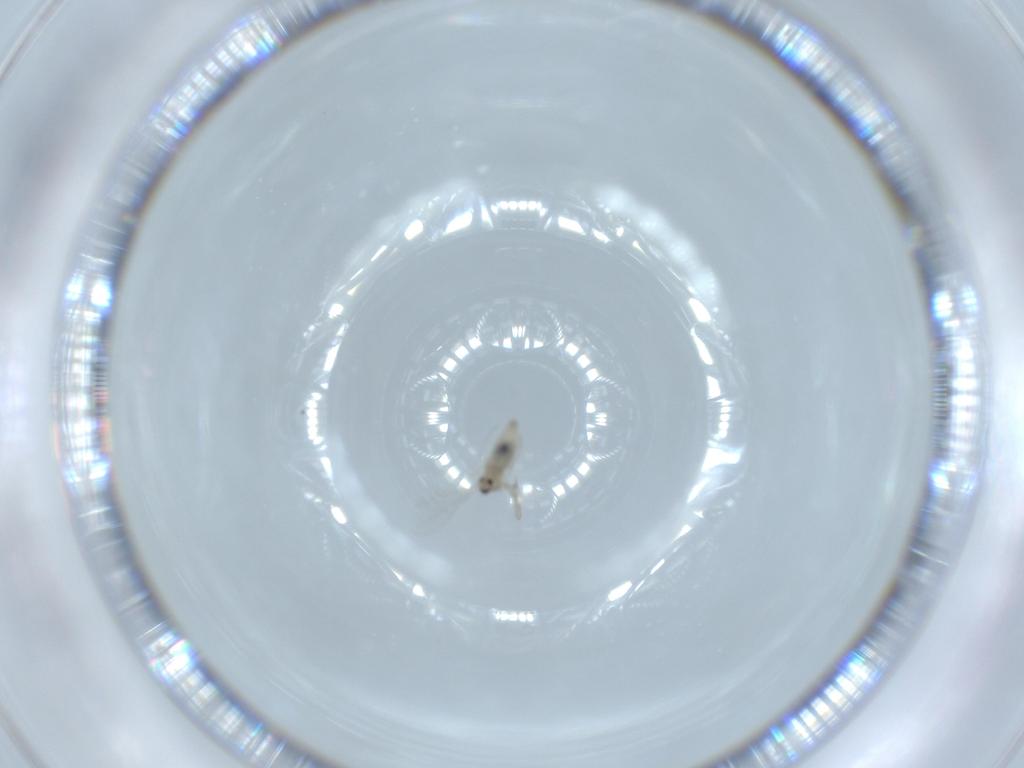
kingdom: Animalia
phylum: Arthropoda
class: Insecta
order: Diptera
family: Cecidomyiidae
